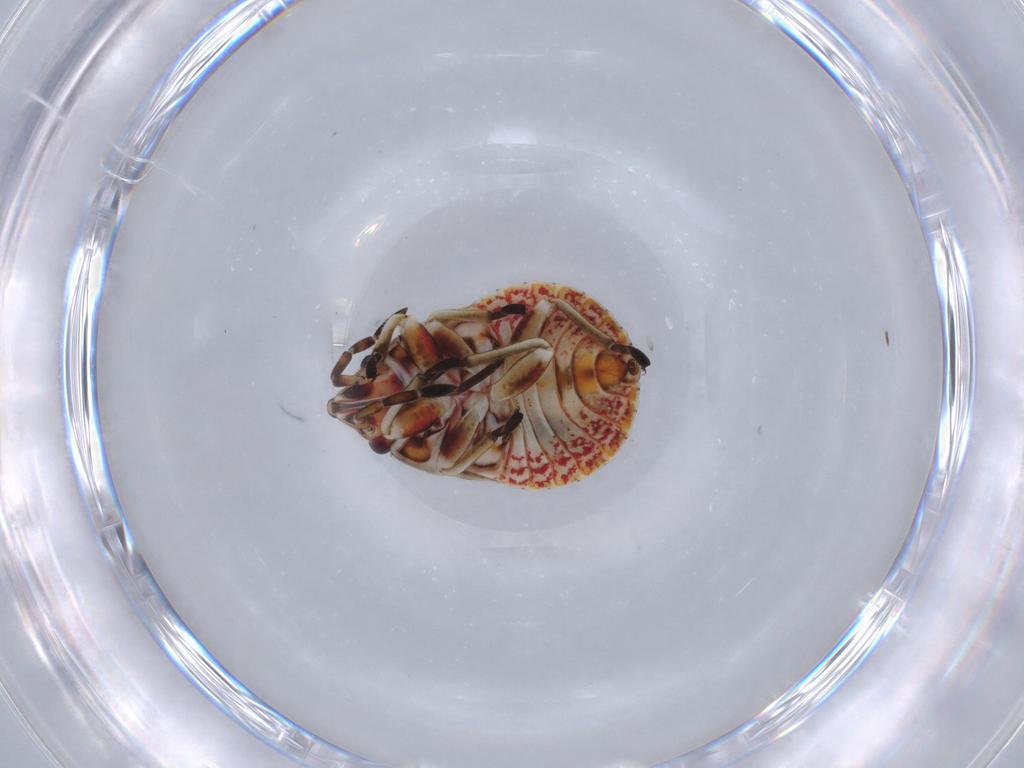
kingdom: Animalia
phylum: Arthropoda
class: Insecta
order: Hemiptera
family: Rhyparochromidae
